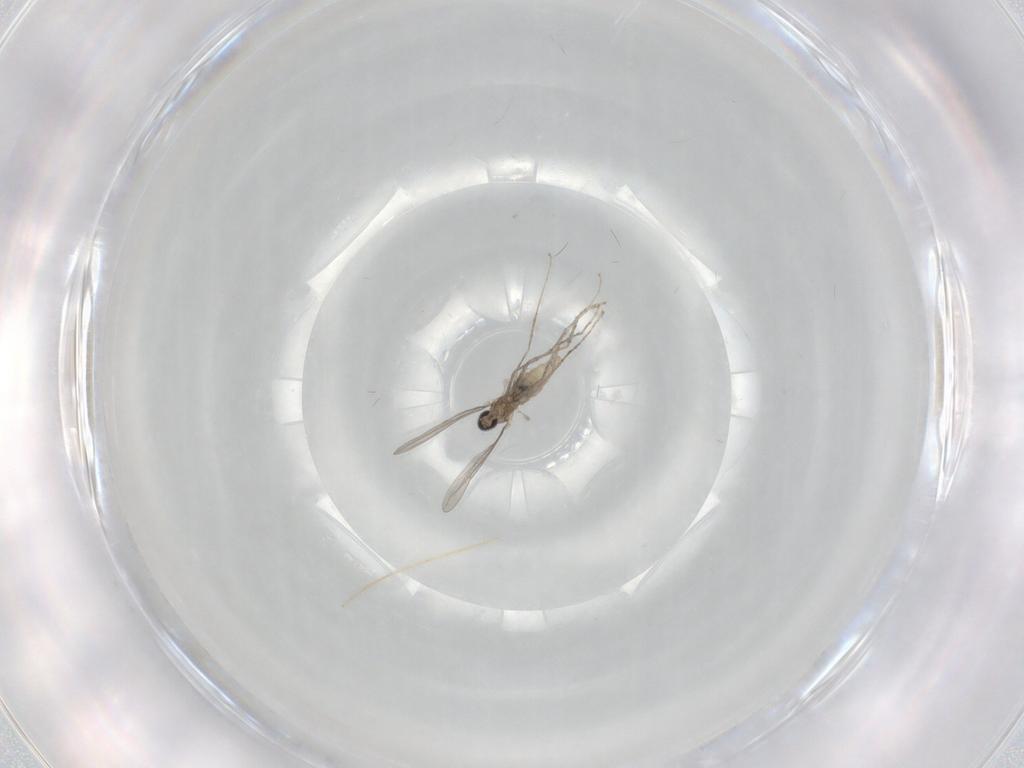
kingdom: Animalia
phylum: Arthropoda
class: Insecta
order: Diptera
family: Chironomidae
